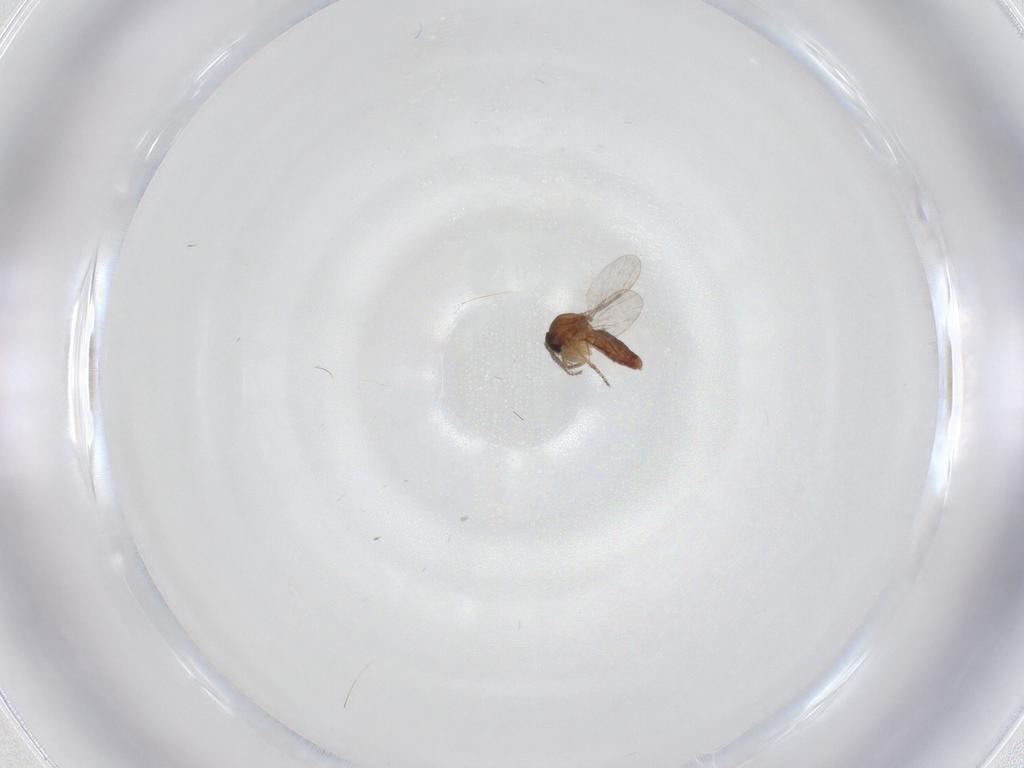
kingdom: Animalia
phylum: Arthropoda
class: Insecta
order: Diptera
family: Ceratopogonidae
